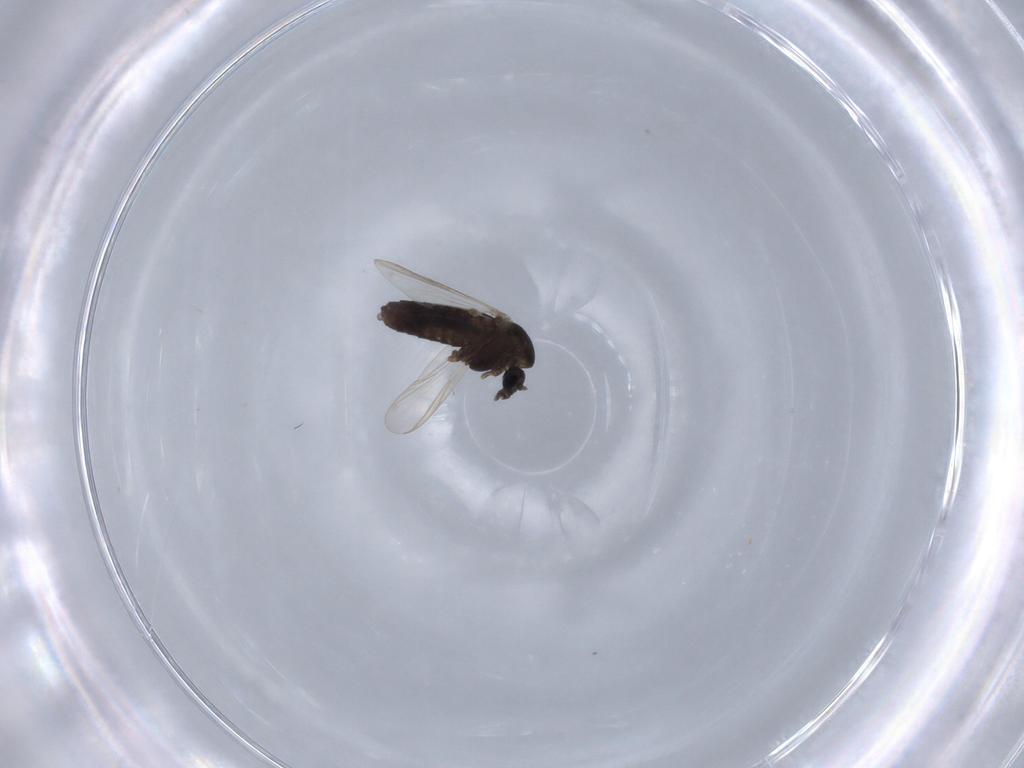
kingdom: Animalia
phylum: Arthropoda
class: Insecta
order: Diptera
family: Chironomidae
